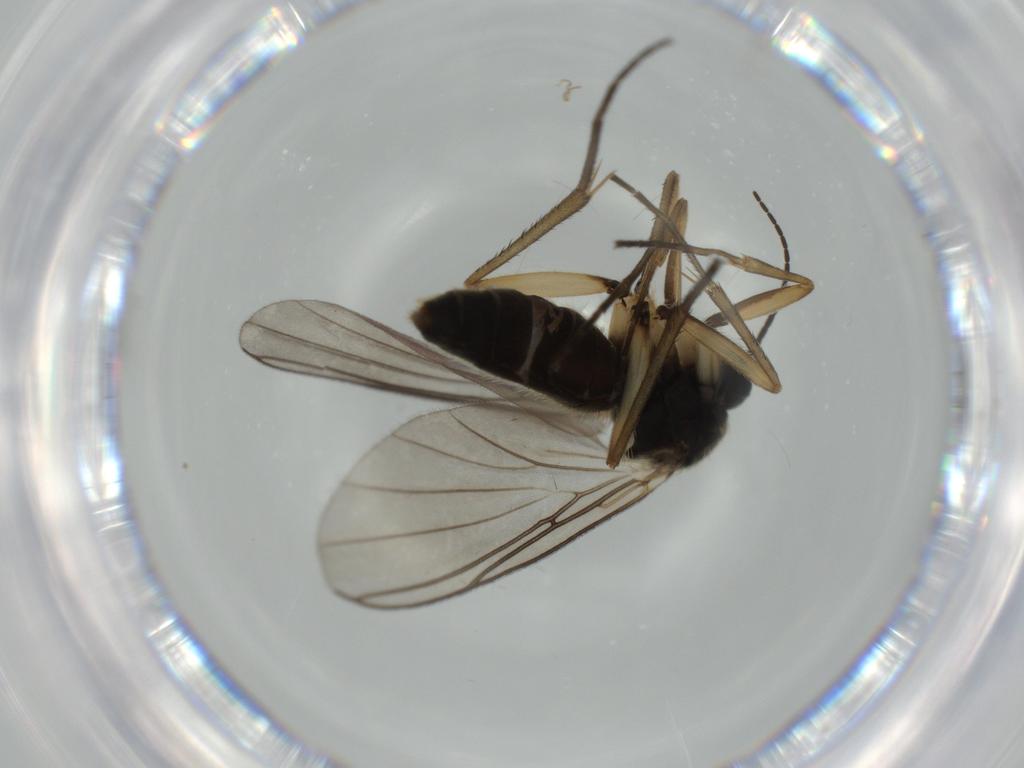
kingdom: Animalia
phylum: Arthropoda
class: Insecta
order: Diptera
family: Mycetophilidae
